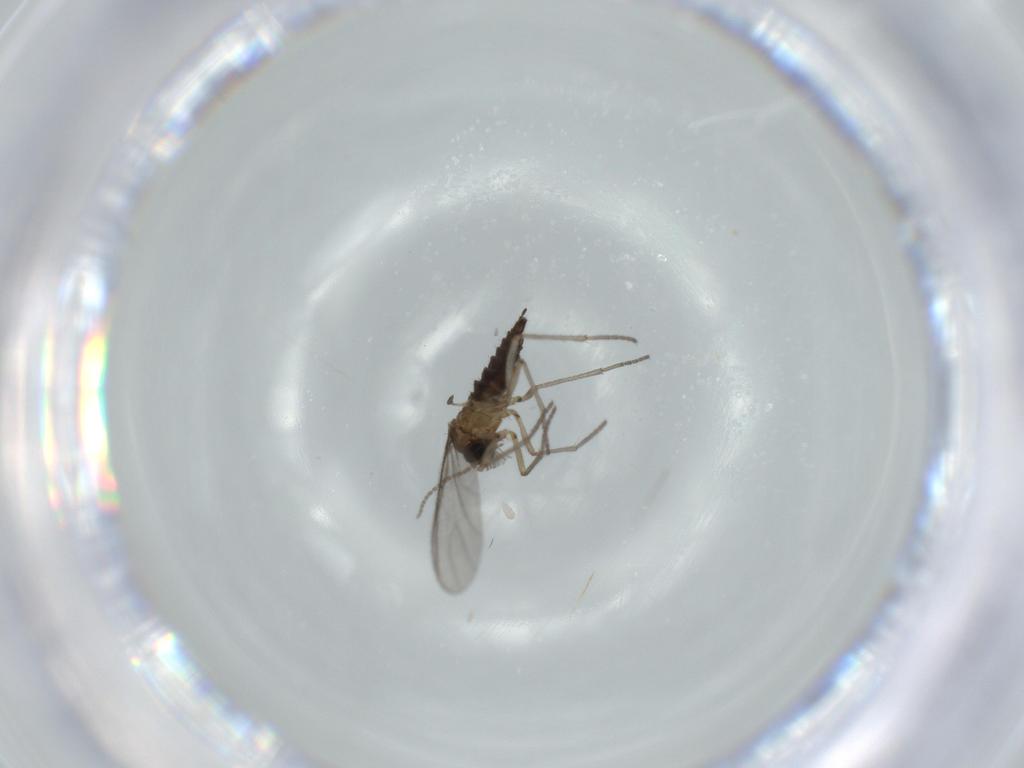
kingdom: Animalia
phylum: Arthropoda
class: Insecta
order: Diptera
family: Sciaridae
